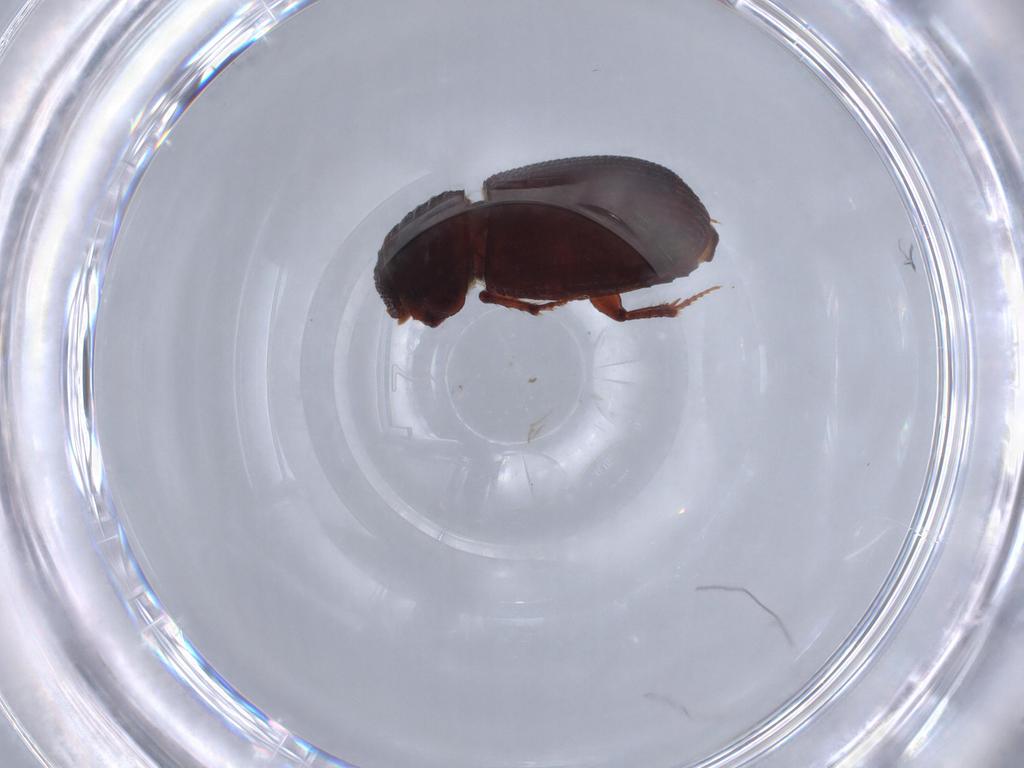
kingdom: Animalia
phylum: Arthropoda
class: Insecta
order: Coleoptera
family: Scarabaeidae
